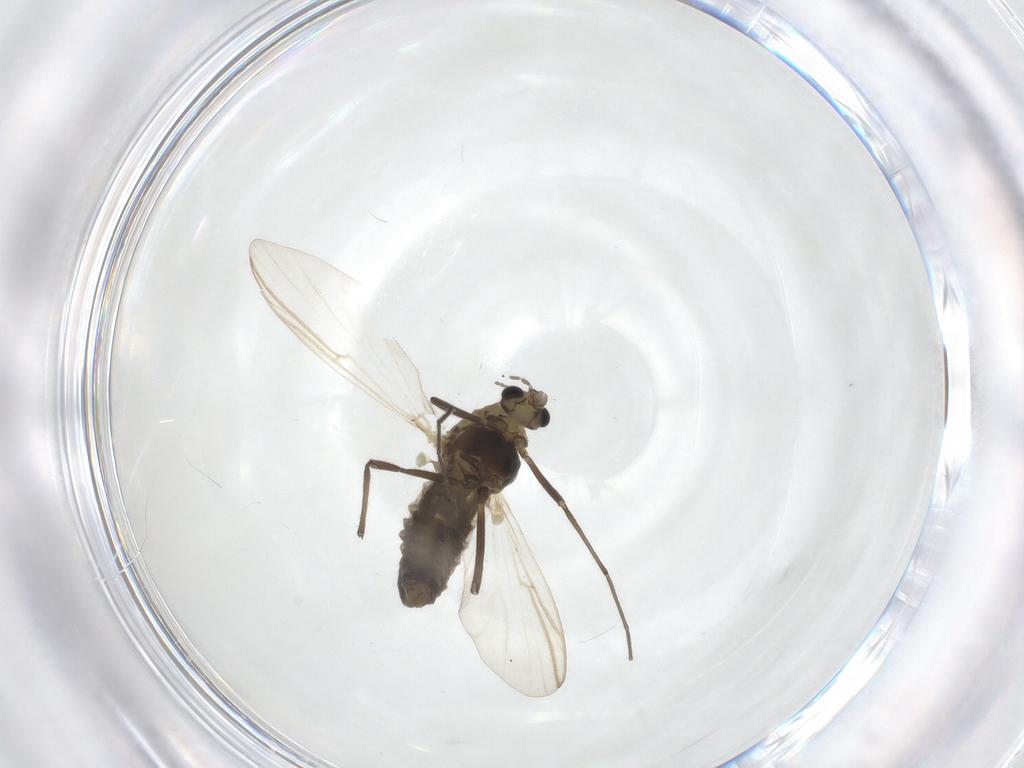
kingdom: Animalia
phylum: Arthropoda
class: Insecta
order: Diptera
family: Chironomidae
